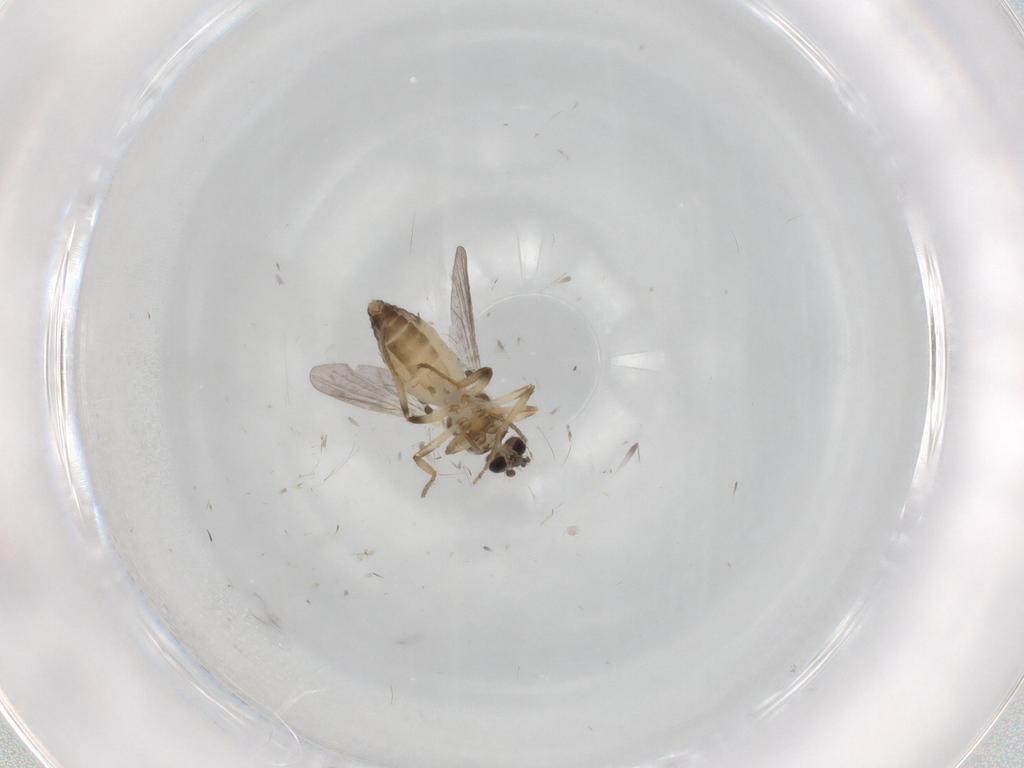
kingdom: Animalia
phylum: Arthropoda
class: Insecta
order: Diptera
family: Ceratopogonidae
